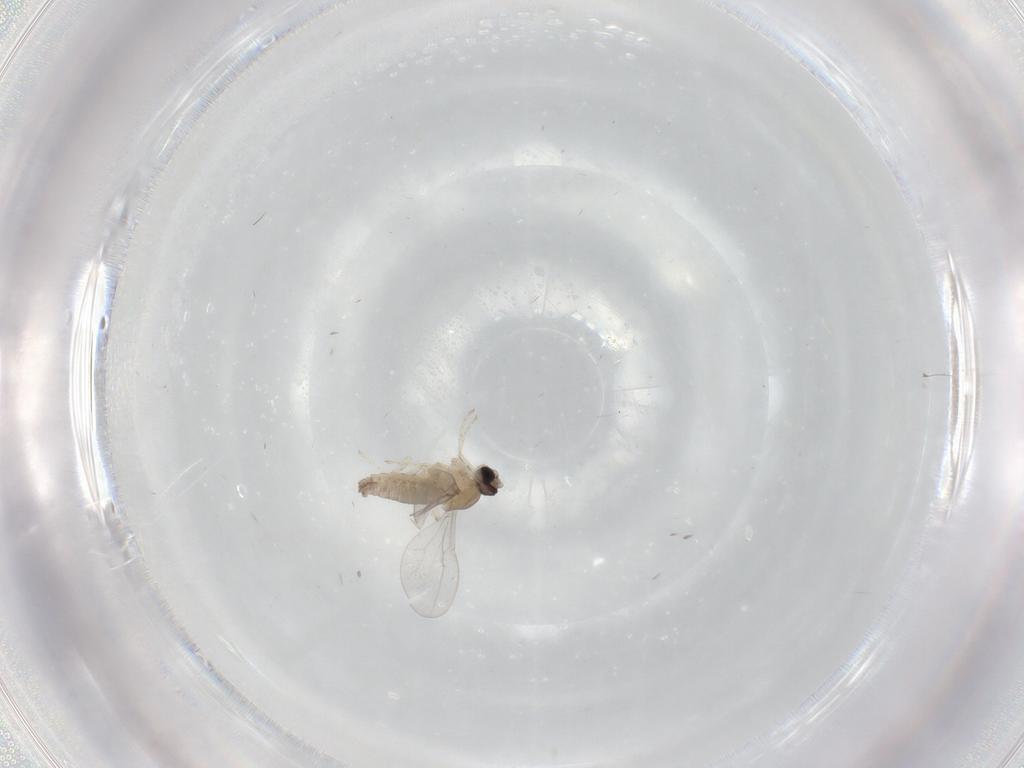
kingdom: Animalia
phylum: Arthropoda
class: Insecta
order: Diptera
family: Cecidomyiidae
